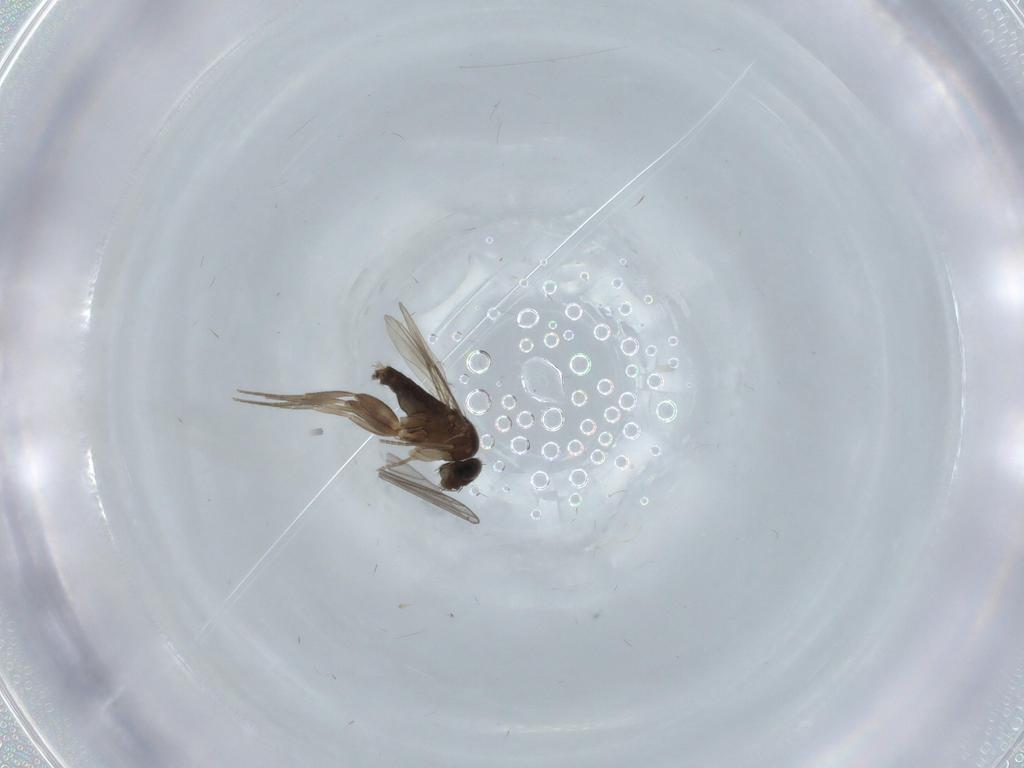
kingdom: Animalia
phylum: Arthropoda
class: Insecta
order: Diptera
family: Phoridae
